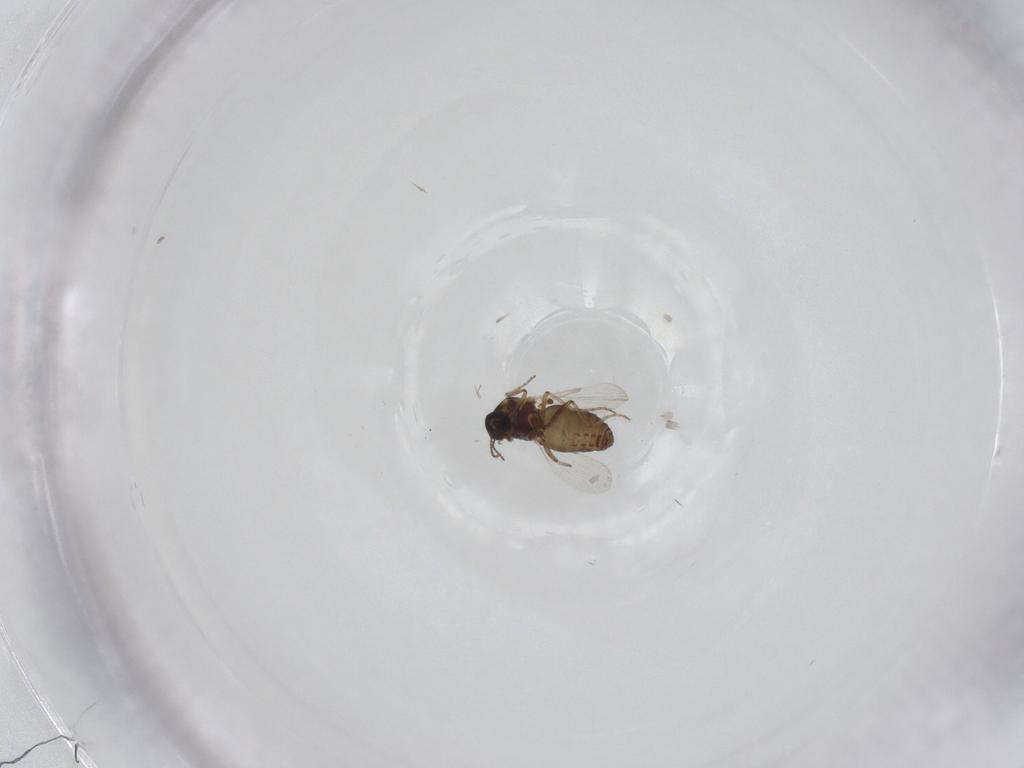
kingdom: Animalia
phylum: Arthropoda
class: Insecta
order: Diptera
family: Ceratopogonidae
